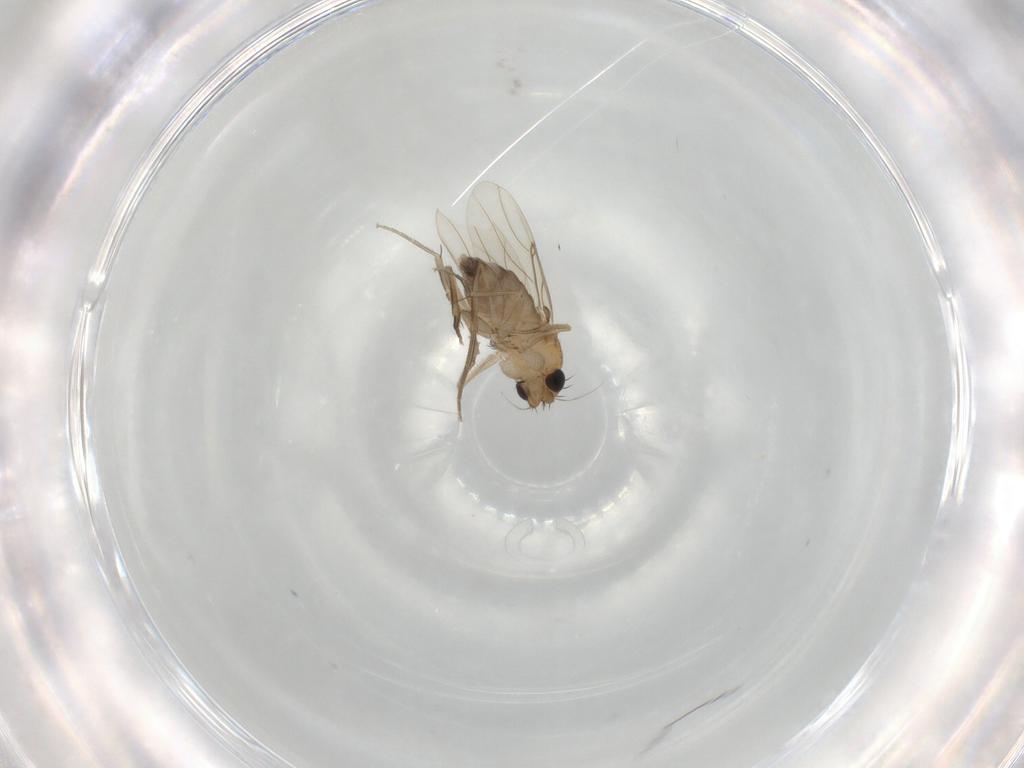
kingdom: Animalia
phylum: Arthropoda
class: Insecta
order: Diptera
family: Phoridae
